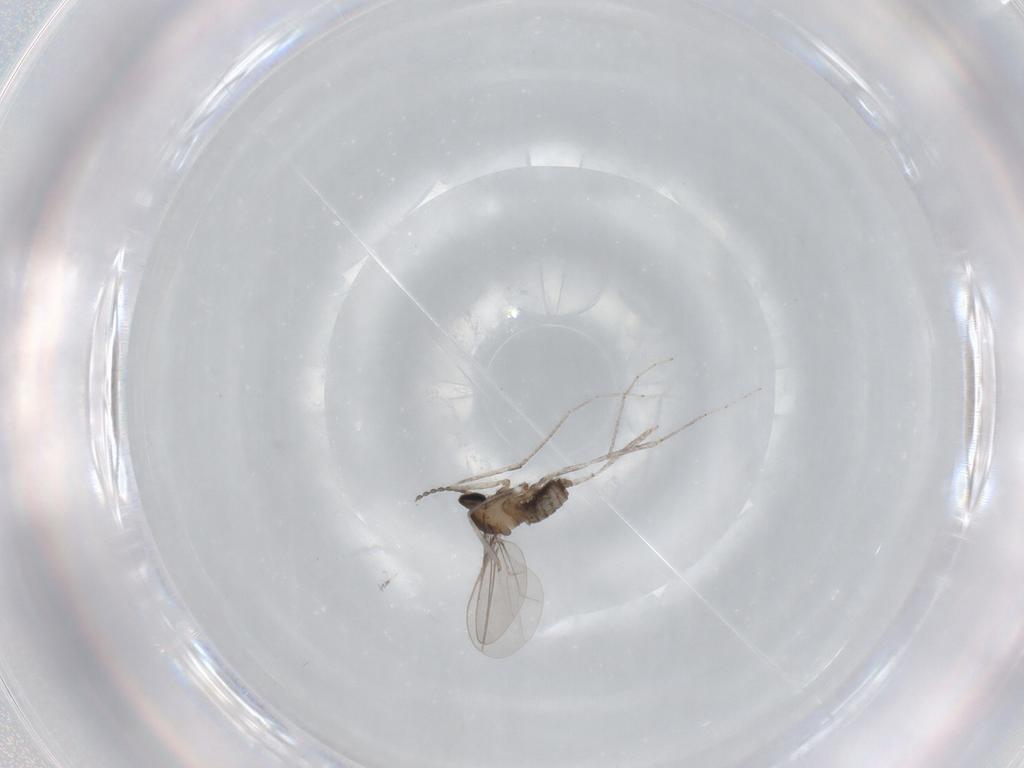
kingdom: Animalia
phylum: Arthropoda
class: Insecta
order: Diptera
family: Cecidomyiidae
